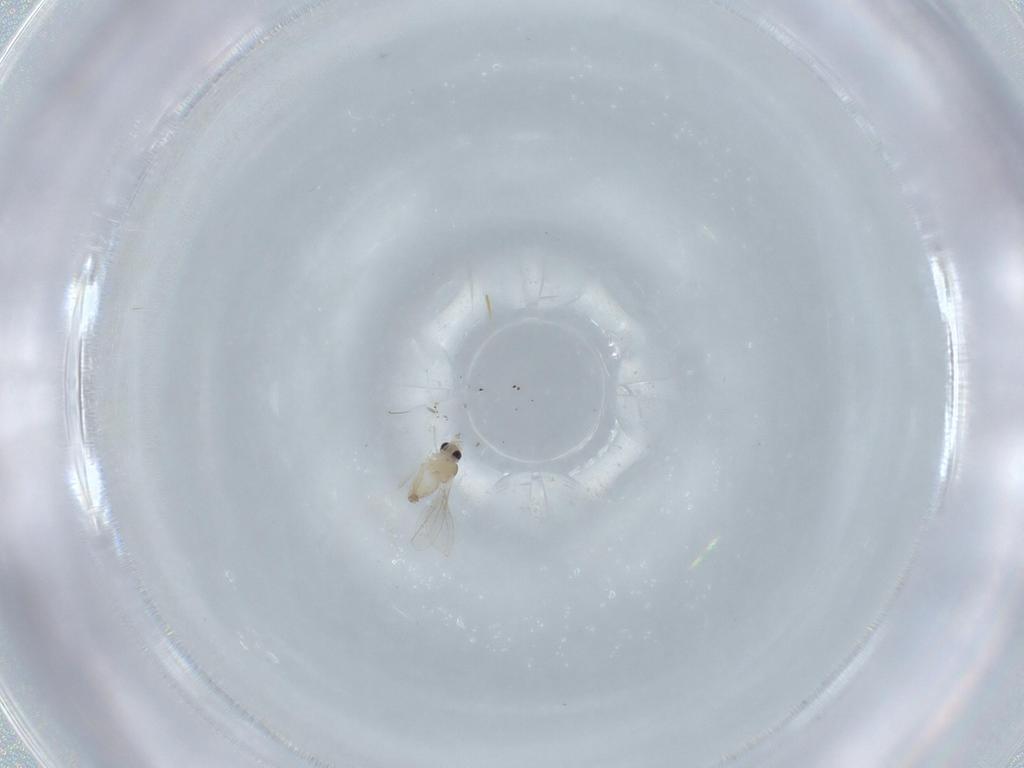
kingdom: Animalia
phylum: Arthropoda
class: Insecta
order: Diptera
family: Cecidomyiidae
